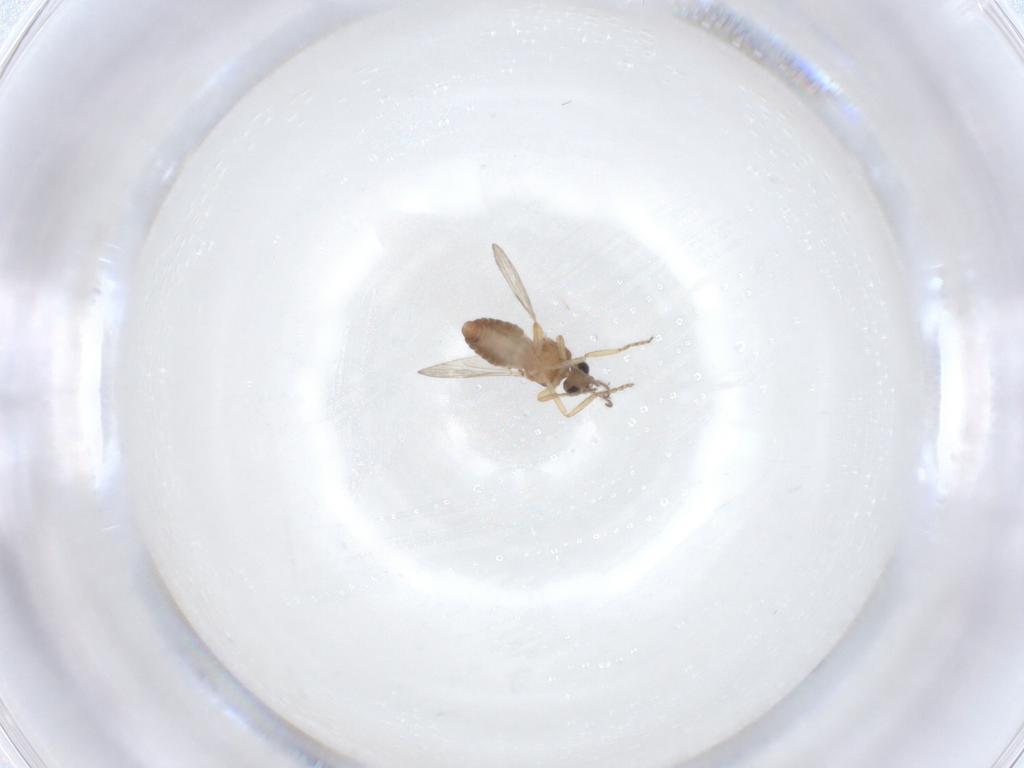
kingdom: Animalia
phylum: Arthropoda
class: Insecta
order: Diptera
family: Ceratopogonidae
